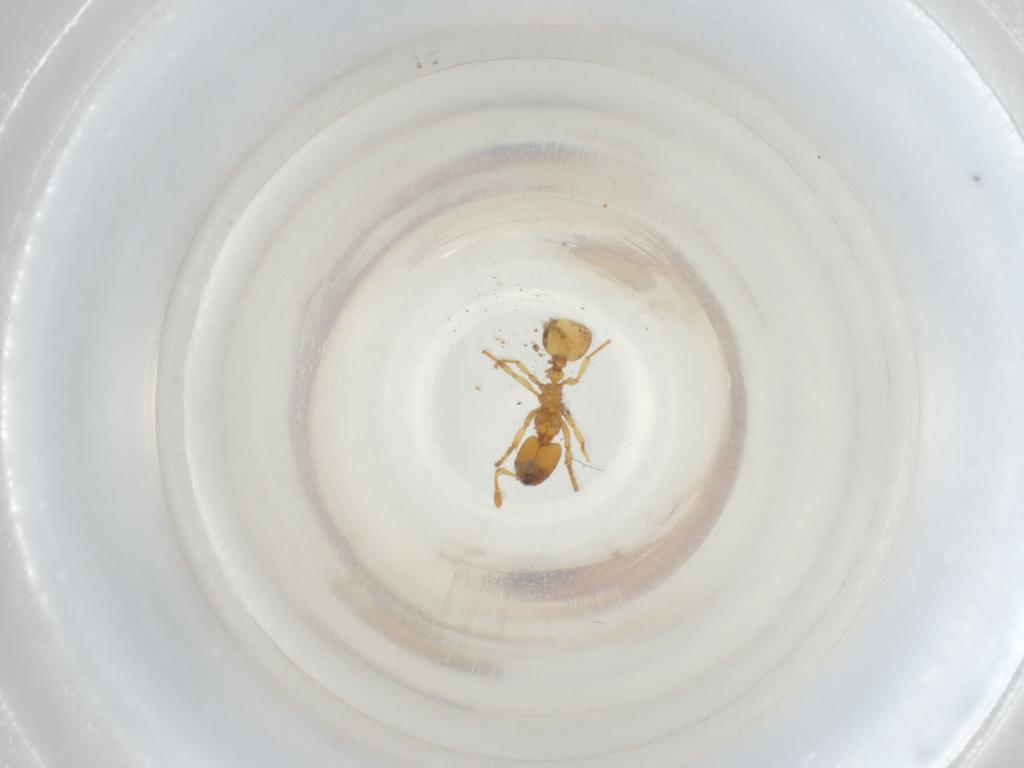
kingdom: Animalia
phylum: Arthropoda
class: Insecta
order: Hymenoptera
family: Formicidae
